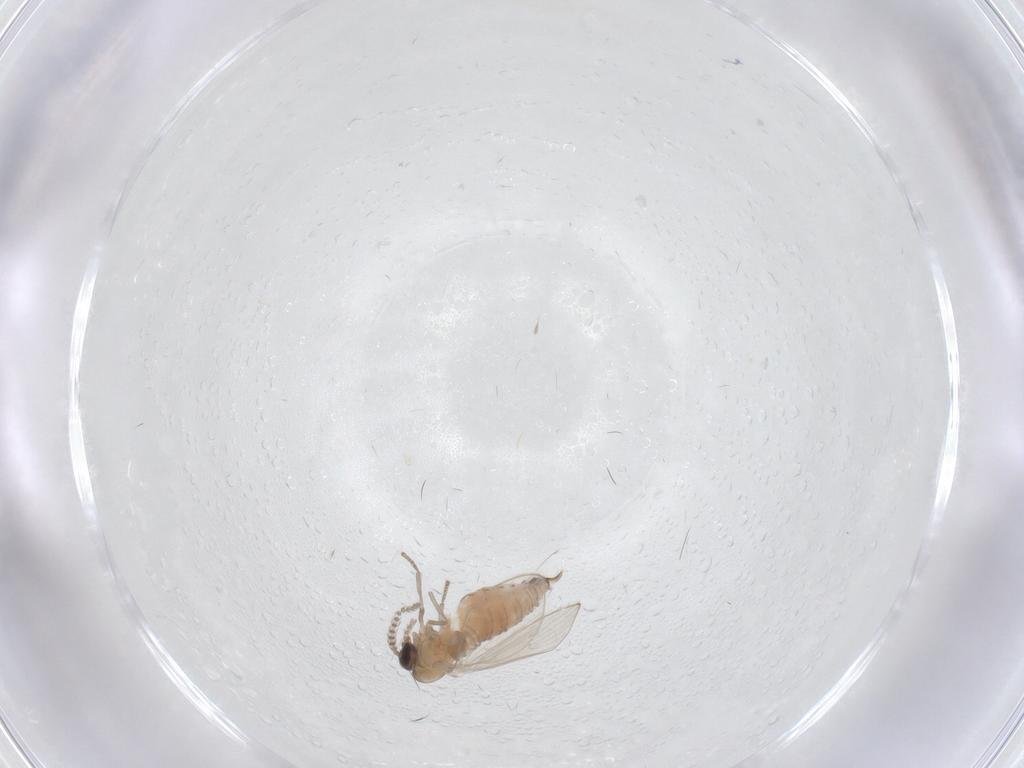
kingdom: Animalia
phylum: Arthropoda
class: Insecta
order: Diptera
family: Psychodidae
